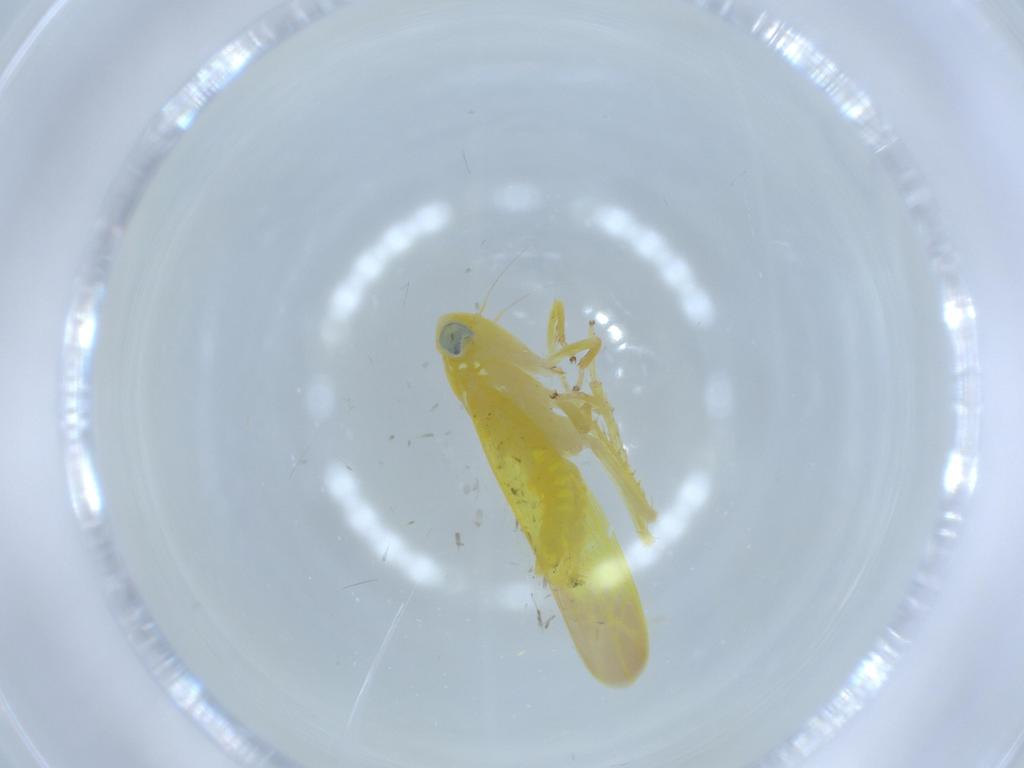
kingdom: Animalia
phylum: Arthropoda
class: Insecta
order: Hemiptera
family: Cicadellidae
